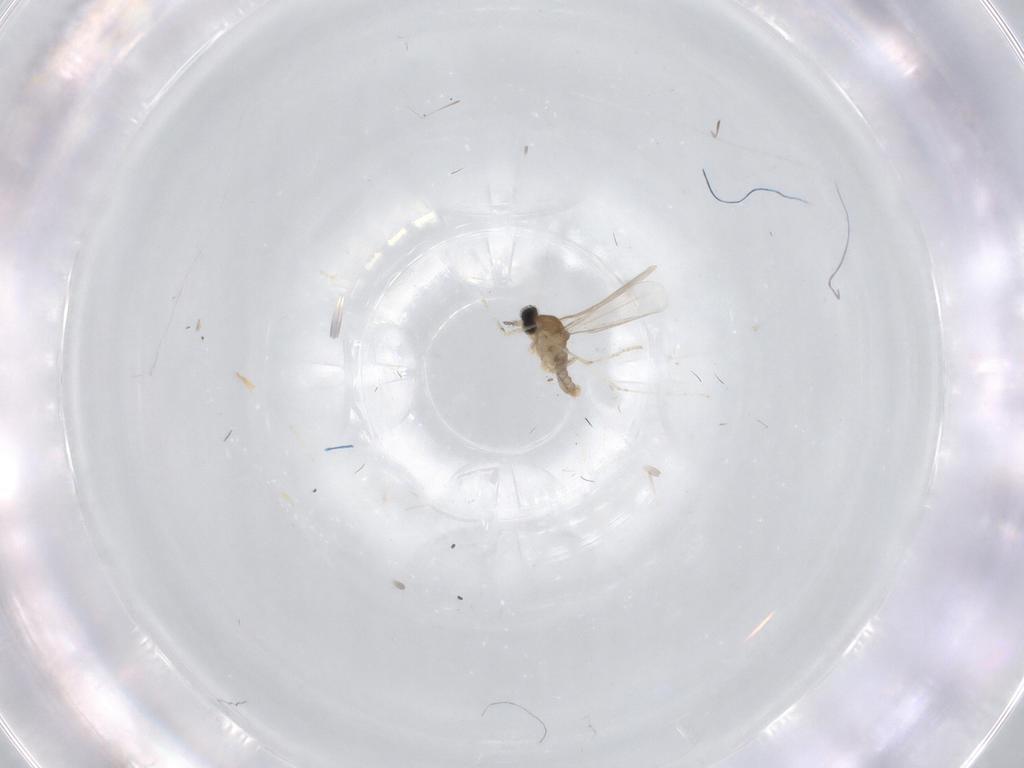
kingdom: Animalia
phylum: Arthropoda
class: Insecta
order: Diptera
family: Cecidomyiidae
